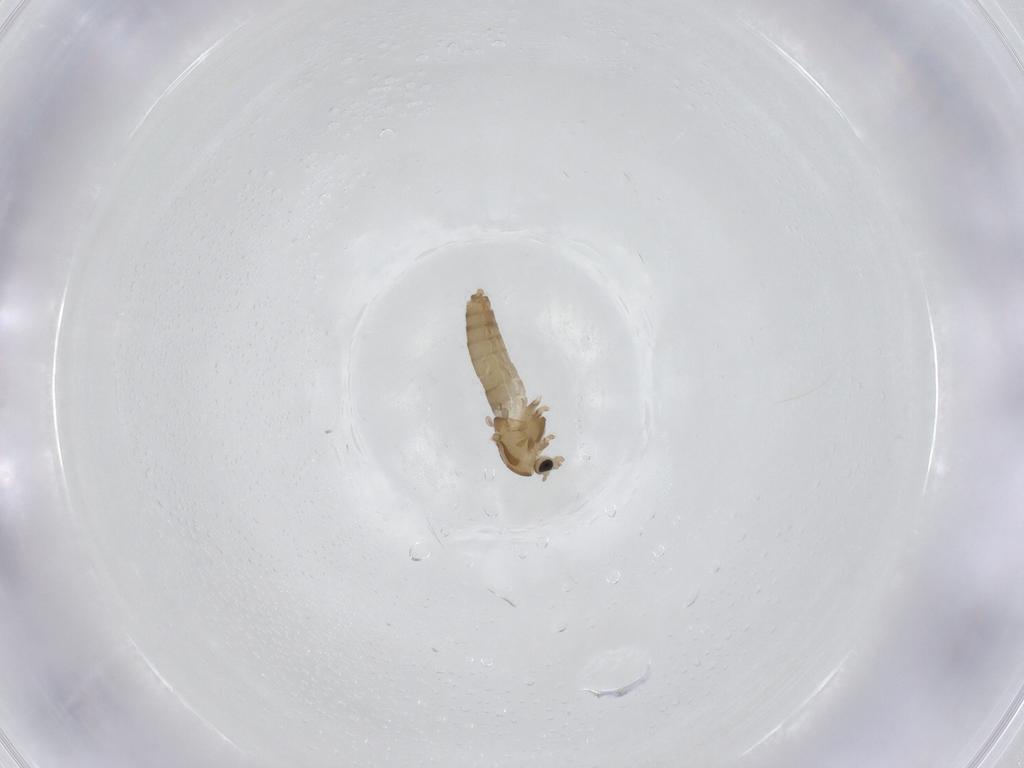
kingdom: Animalia
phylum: Arthropoda
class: Insecta
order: Diptera
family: Chironomidae
